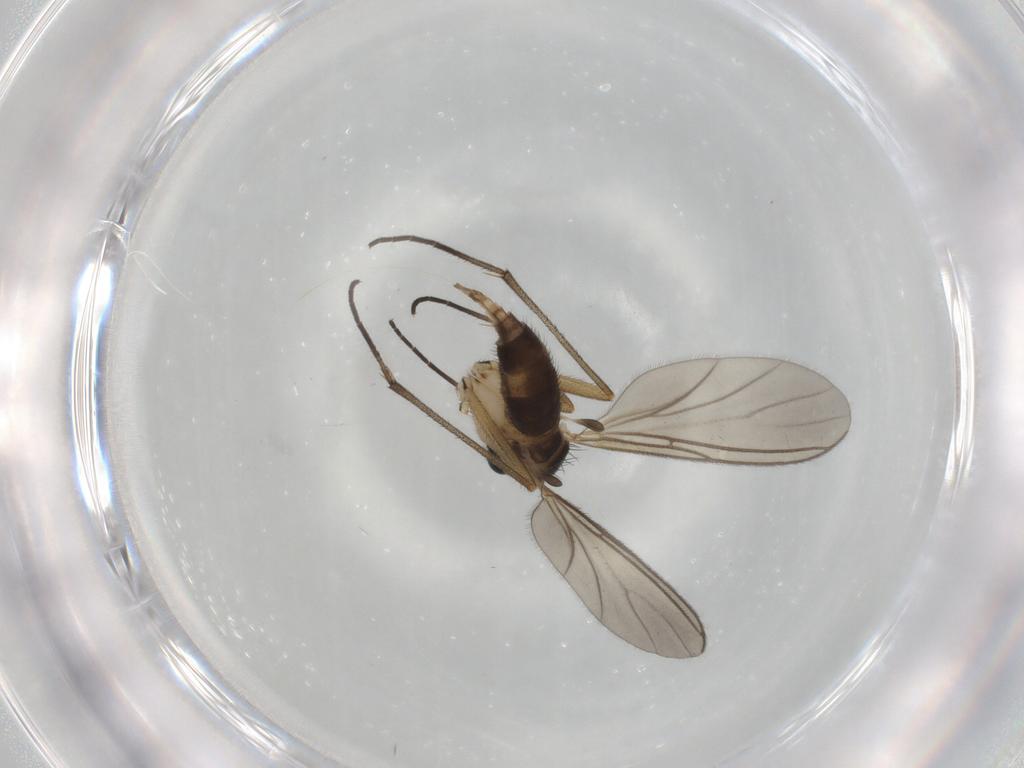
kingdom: Animalia
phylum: Arthropoda
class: Insecta
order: Diptera
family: Sciaridae
